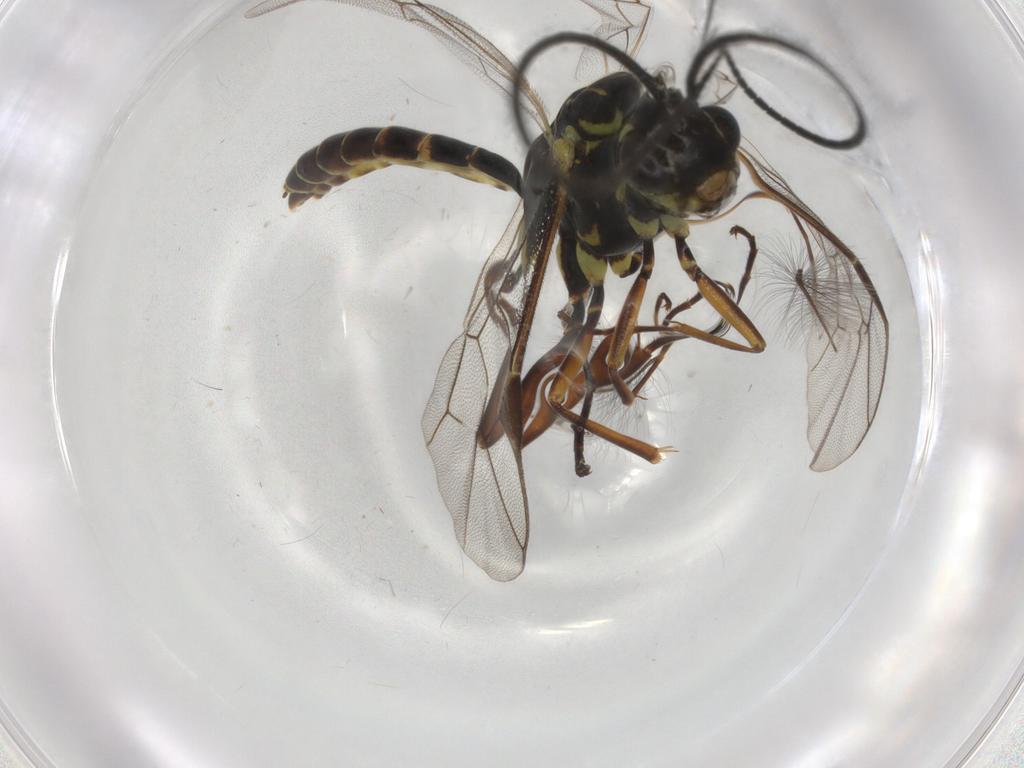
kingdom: Animalia
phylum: Arthropoda
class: Insecta
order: Hymenoptera
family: Ichneumonidae
